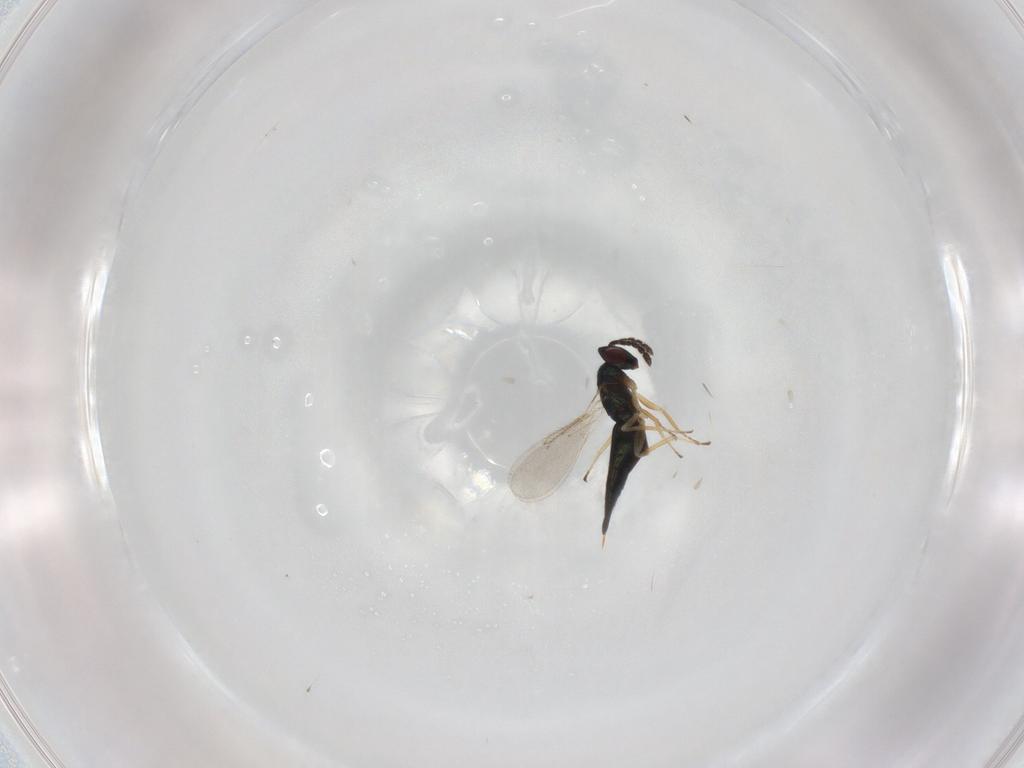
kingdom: Animalia
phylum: Arthropoda
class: Insecta
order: Hymenoptera
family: Eulophidae
